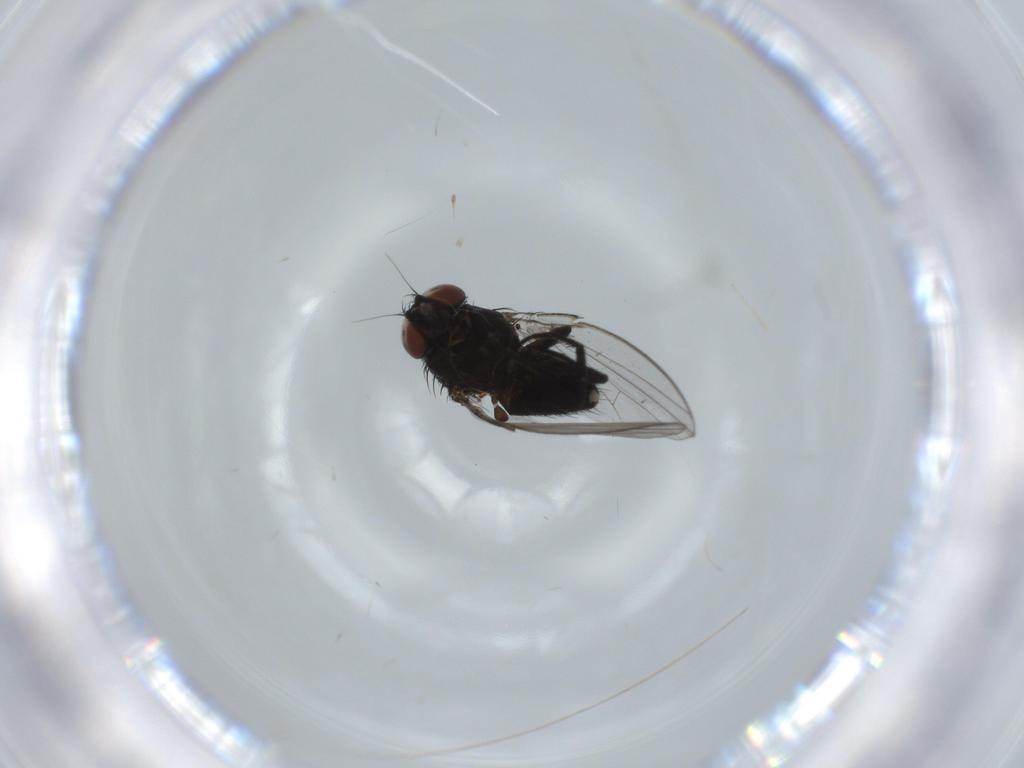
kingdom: Animalia
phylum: Arthropoda
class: Insecta
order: Diptera
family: Milichiidae
